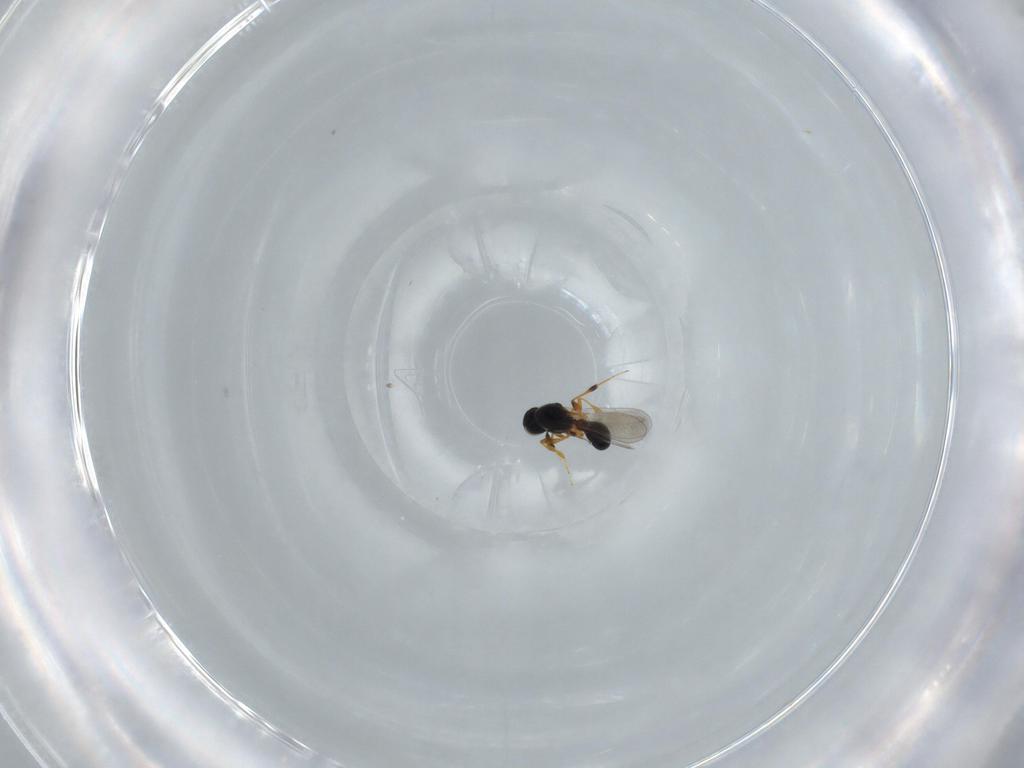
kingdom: Animalia
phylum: Arthropoda
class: Insecta
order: Hymenoptera
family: Platygastridae
